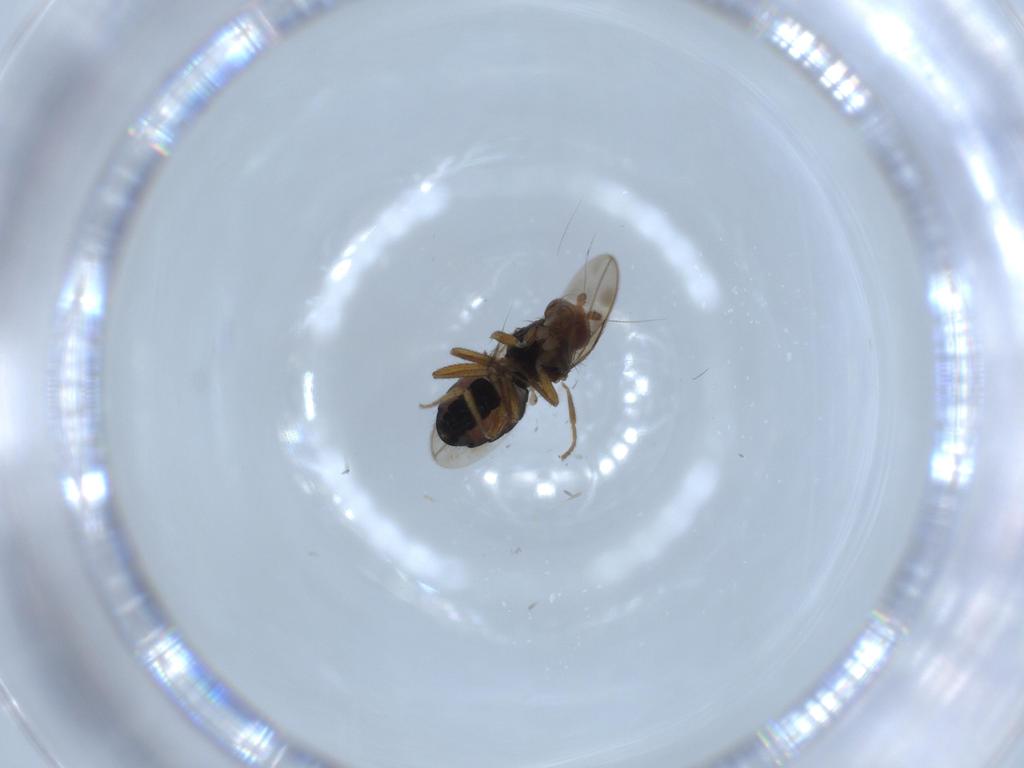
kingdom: Animalia
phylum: Arthropoda
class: Insecta
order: Diptera
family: Sphaeroceridae
